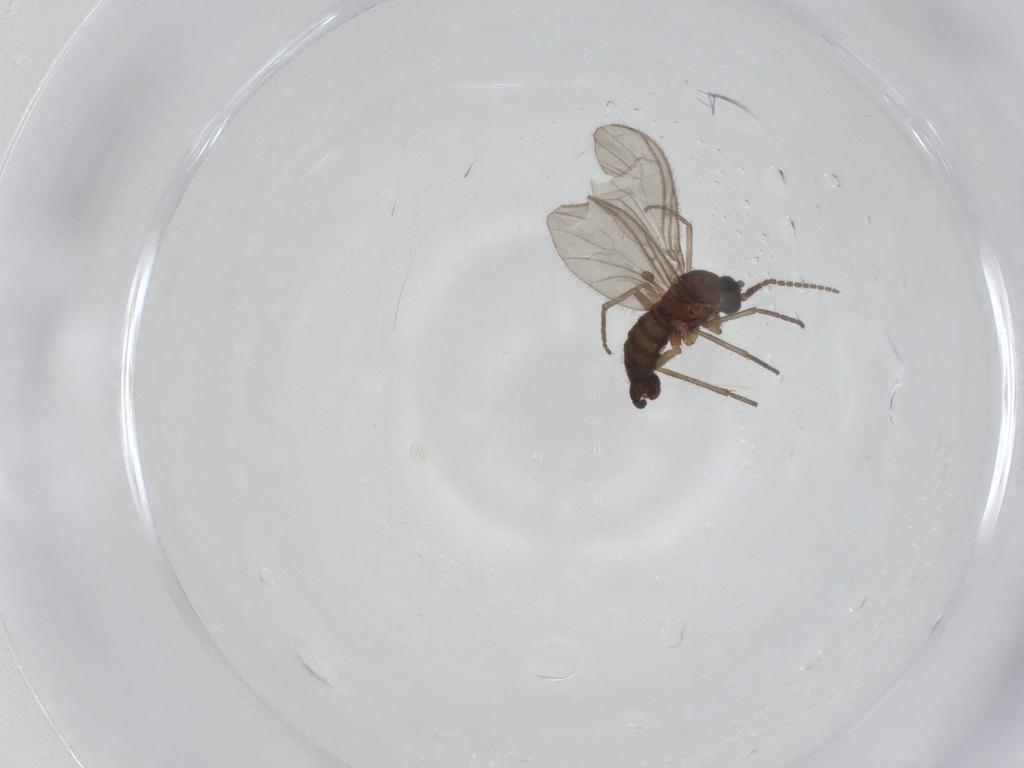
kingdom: Animalia
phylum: Arthropoda
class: Insecta
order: Diptera
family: Sciaridae
